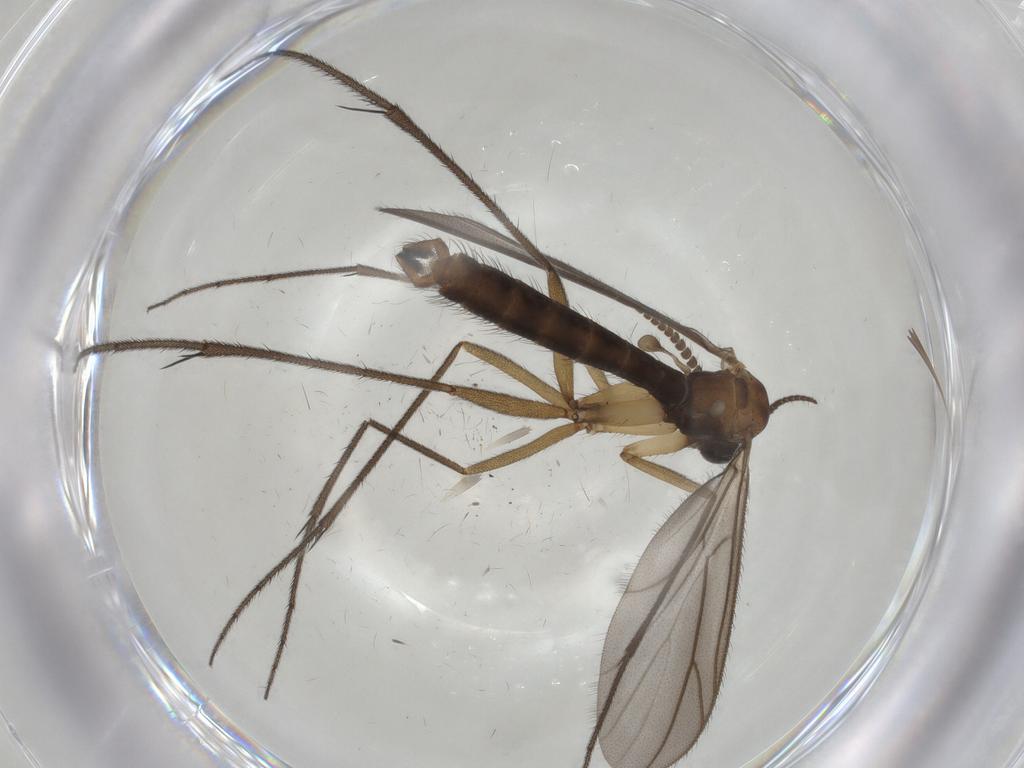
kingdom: Animalia
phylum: Arthropoda
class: Insecta
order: Diptera
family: Ditomyiidae
